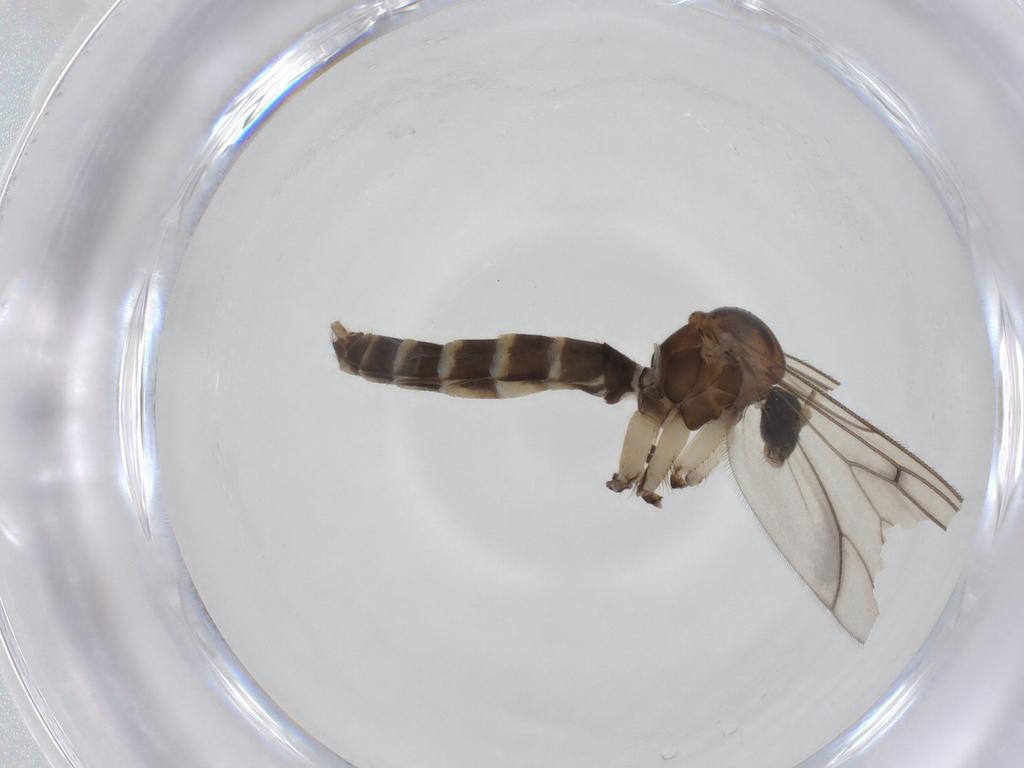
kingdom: Animalia
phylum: Arthropoda
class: Insecta
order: Diptera
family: Mycetophilidae
